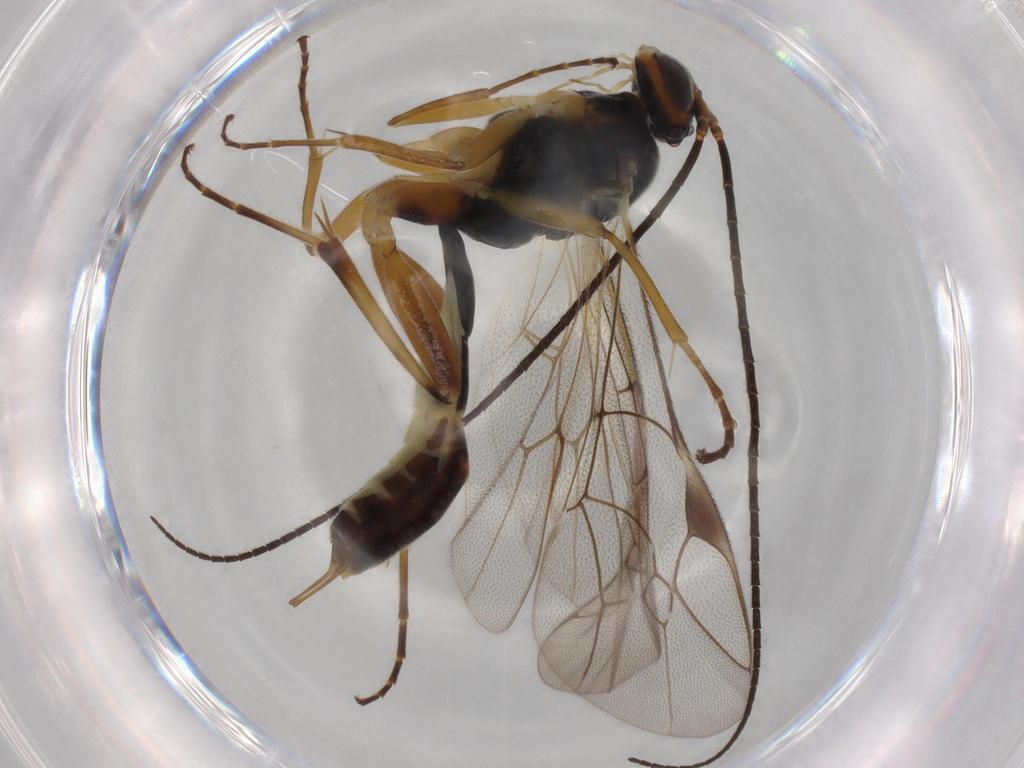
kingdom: Animalia
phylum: Arthropoda
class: Insecta
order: Hymenoptera
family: Ichneumonidae
